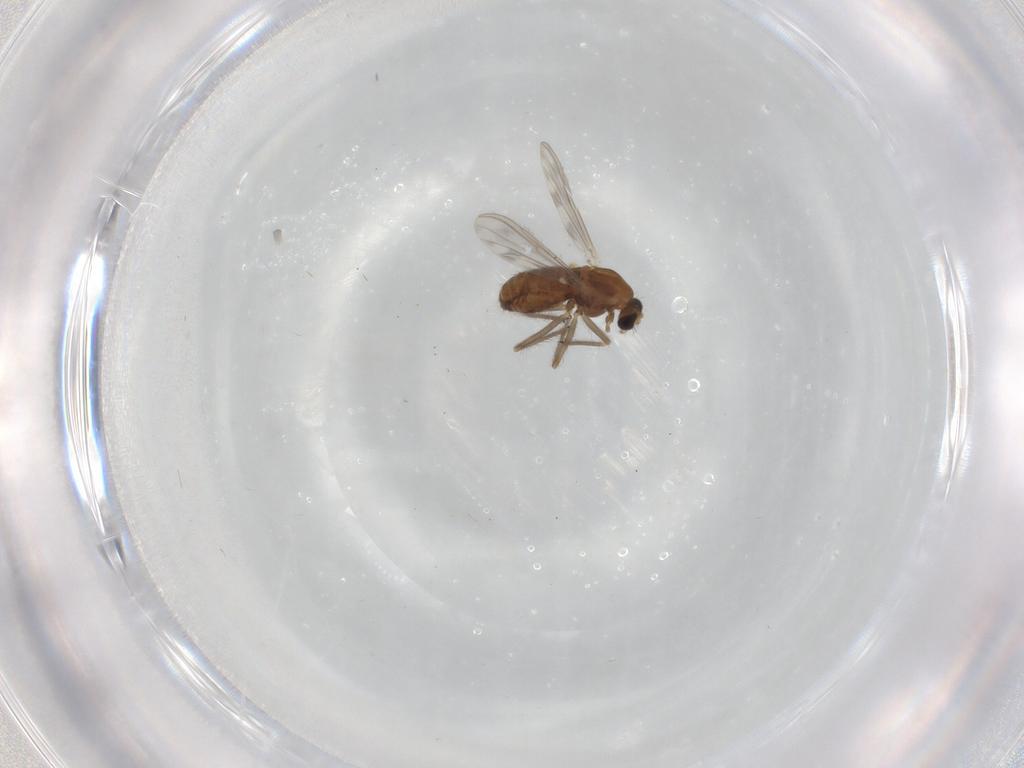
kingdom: Animalia
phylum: Arthropoda
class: Insecta
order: Diptera
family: Chironomidae
